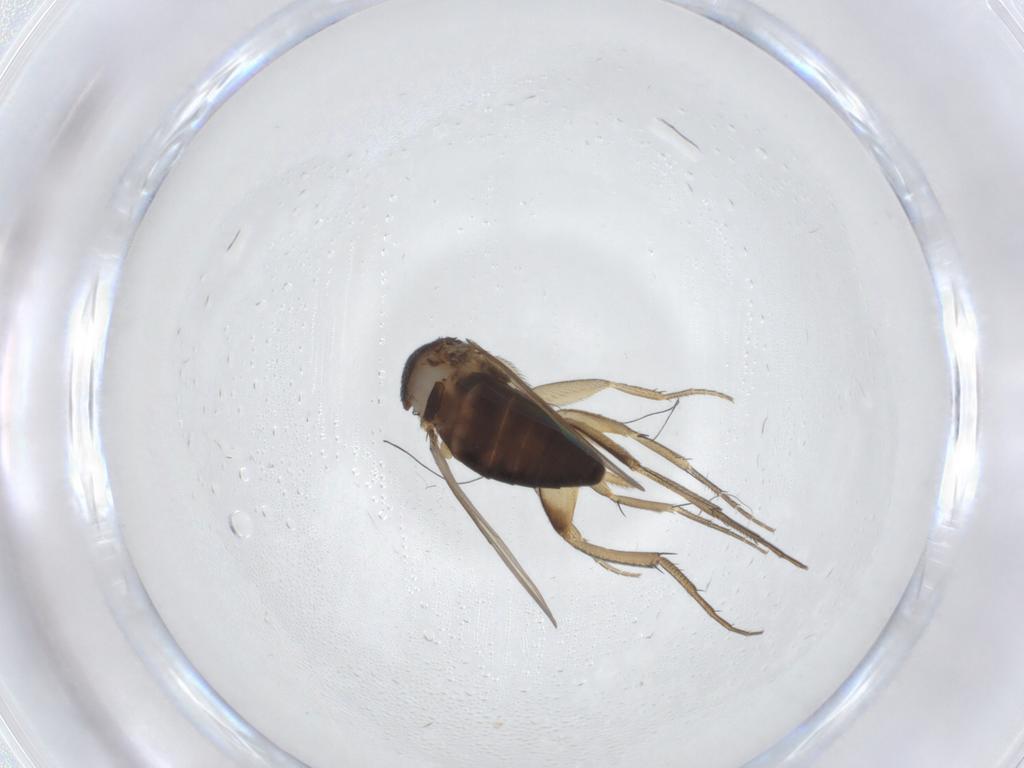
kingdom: Animalia
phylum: Arthropoda
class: Insecta
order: Diptera
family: Phoridae
